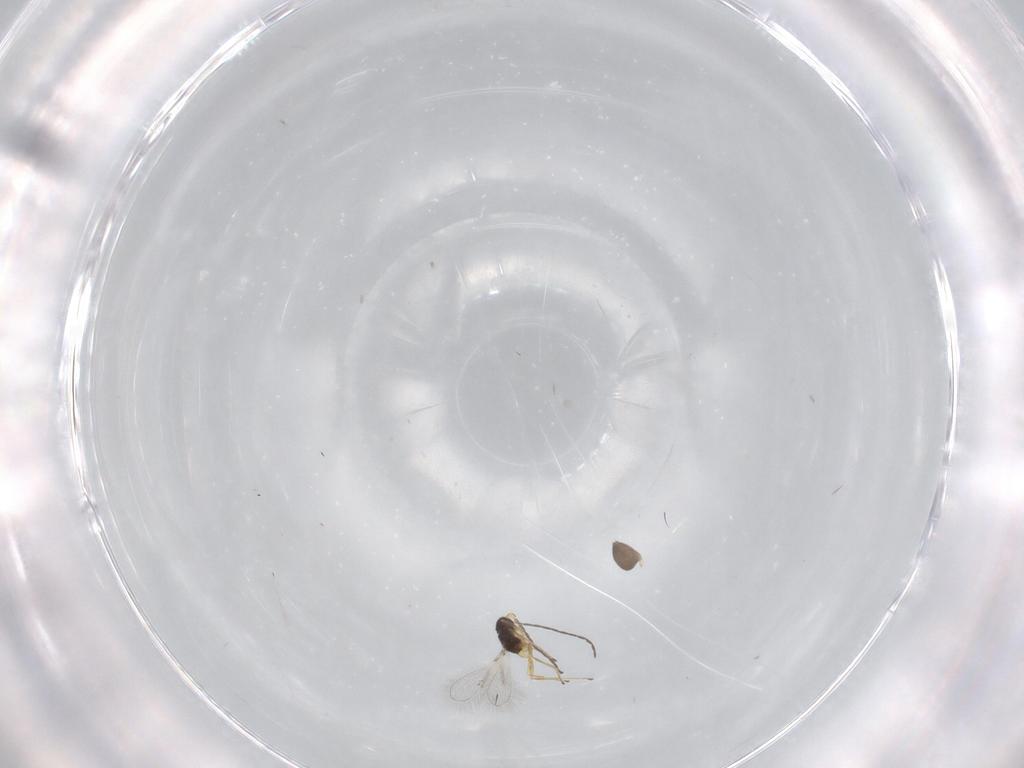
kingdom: Animalia
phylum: Arthropoda
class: Insecta
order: Hymenoptera
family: Mymaridae
